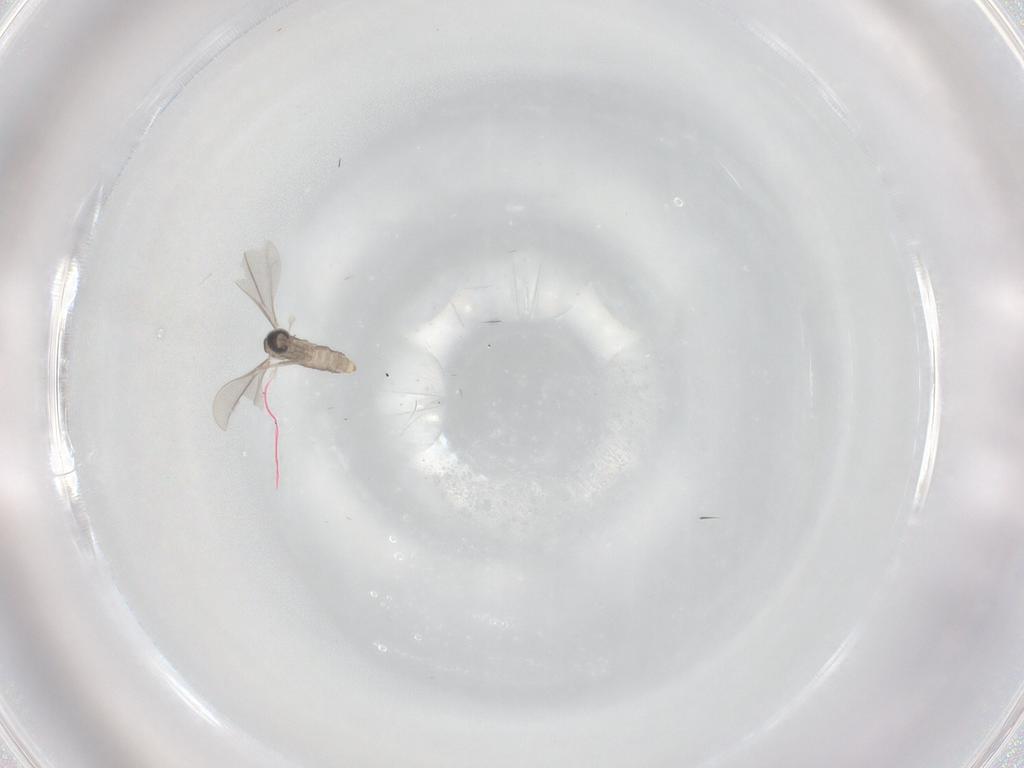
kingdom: Animalia
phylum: Arthropoda
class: Insecta
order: Diptera
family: Cecidomyiidae
